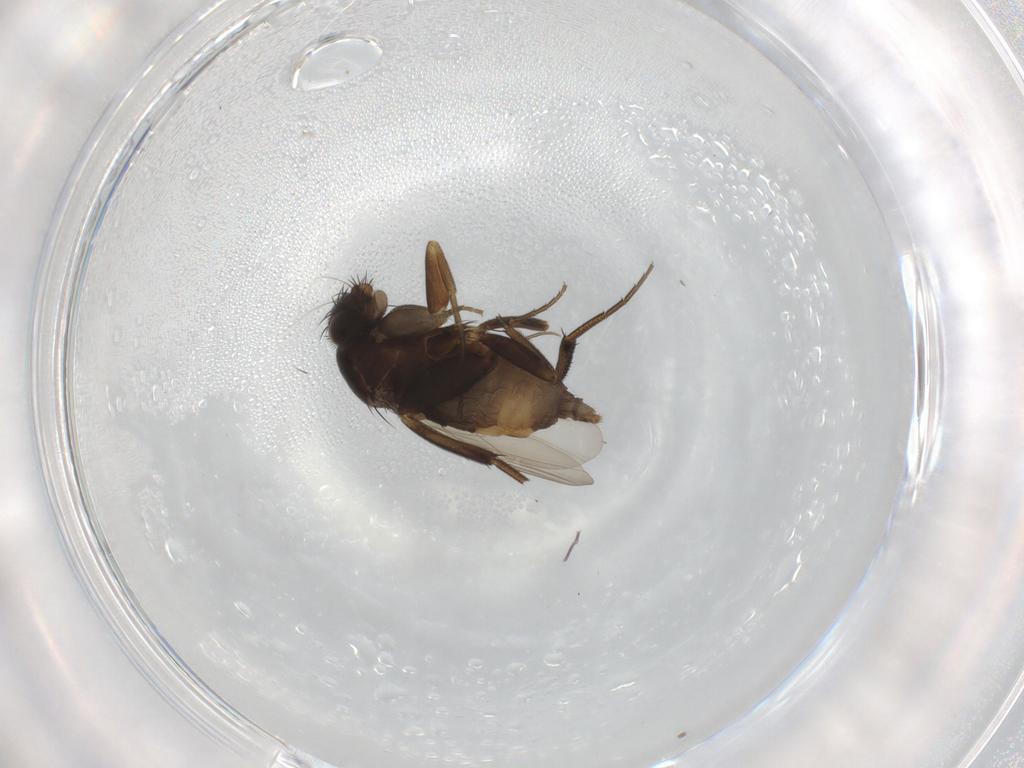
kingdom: Animalia
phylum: Arthropoda
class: Insecta
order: Diptera
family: Phoridae
